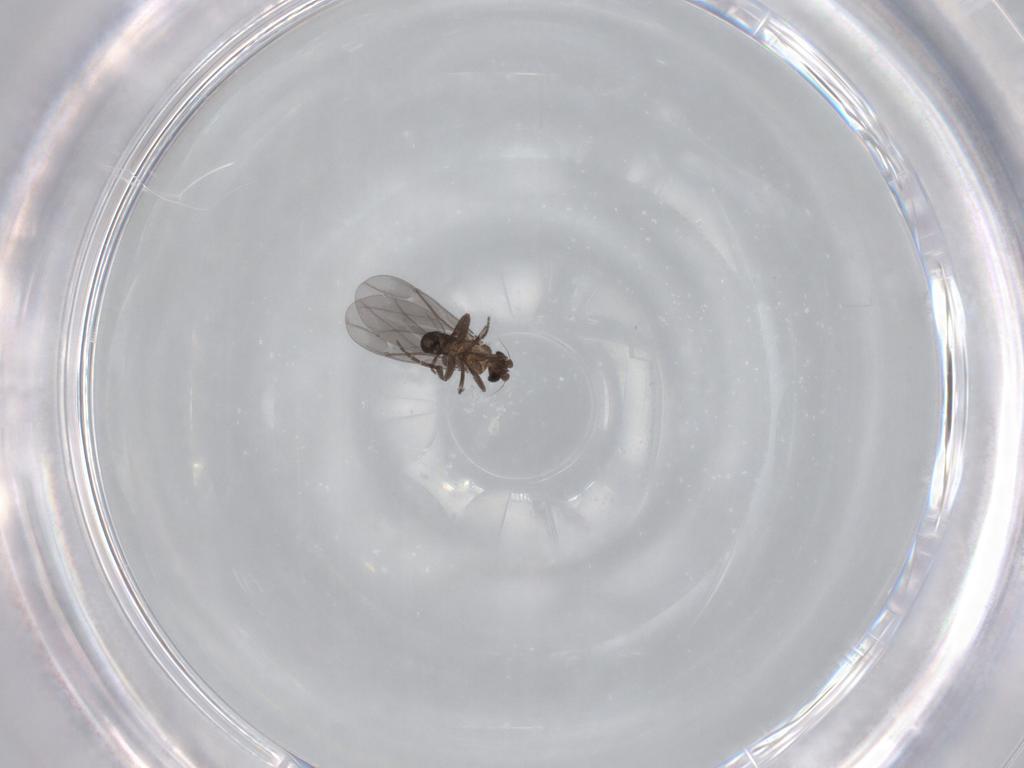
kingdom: Animalia
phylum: Arthropoda
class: Insecta
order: Diptera
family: Phoridae
